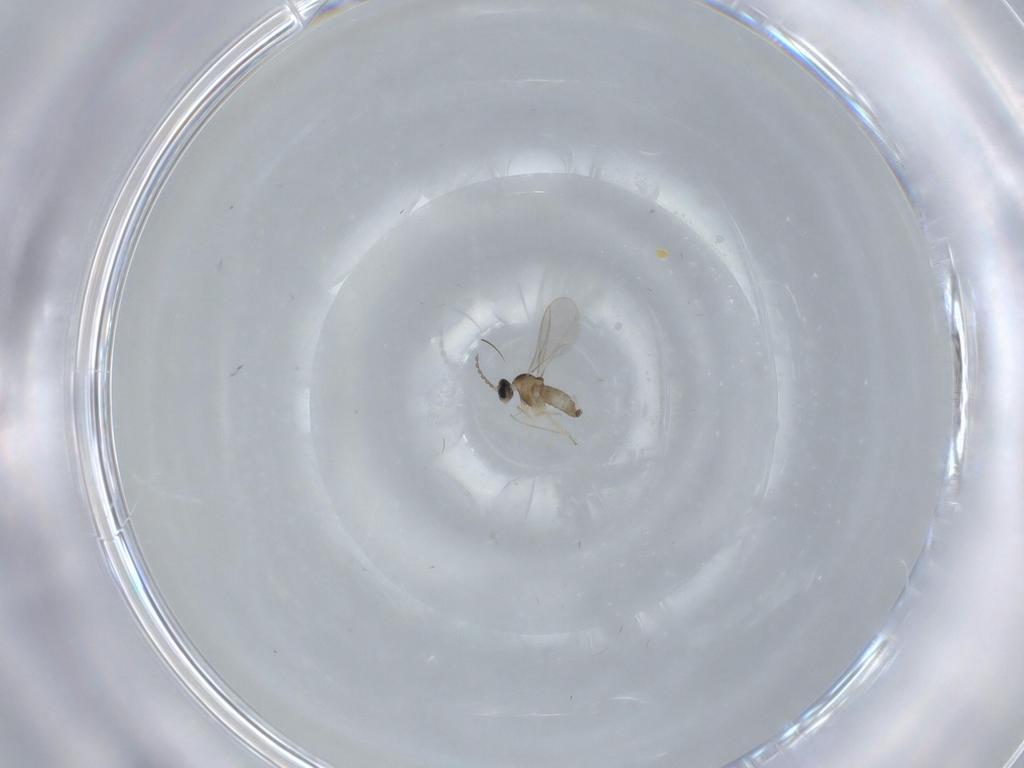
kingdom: Animalia
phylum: Arthropoda
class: Insecta
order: Diptera
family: Cecidomyiidae
